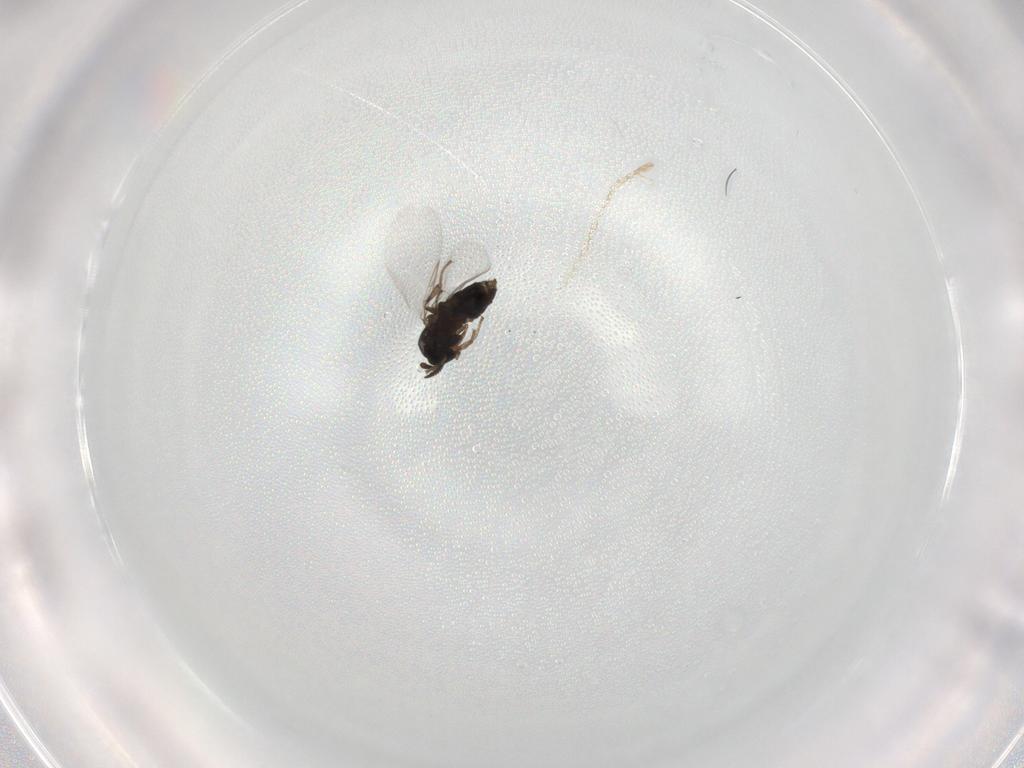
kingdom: Animalia
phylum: Arthropoda
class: Insecta
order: Diptera
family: Scatopsidae
